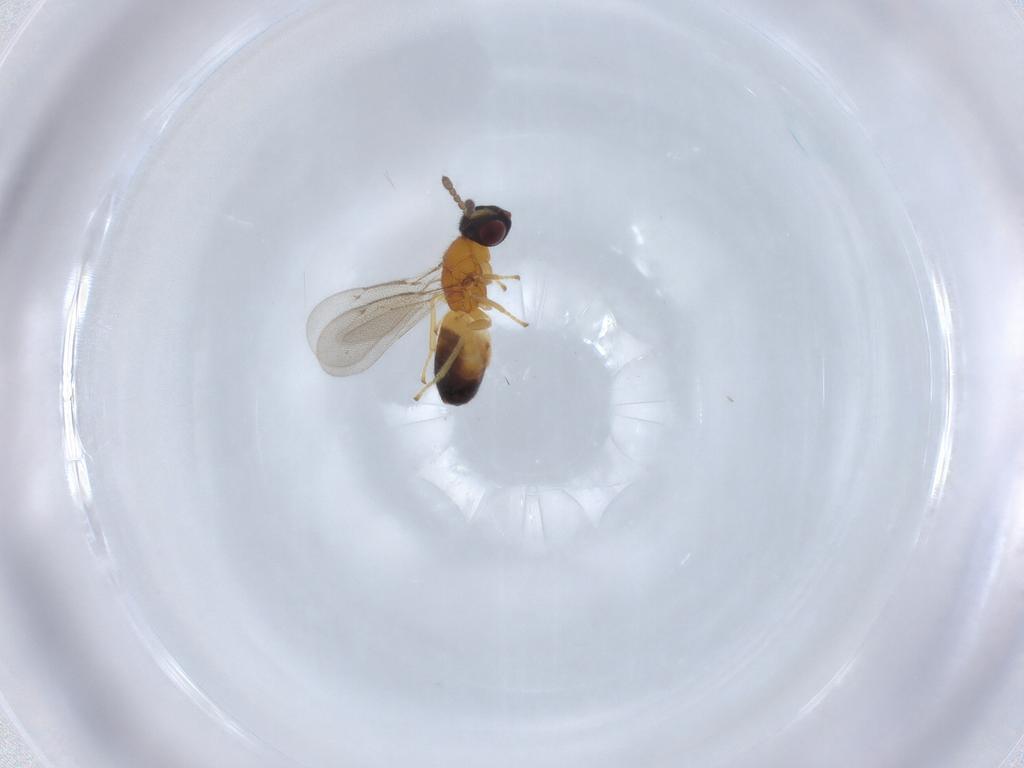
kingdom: Animalia
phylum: Arthropoda
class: Insecta
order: Hymenoptera
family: Eulophidae
